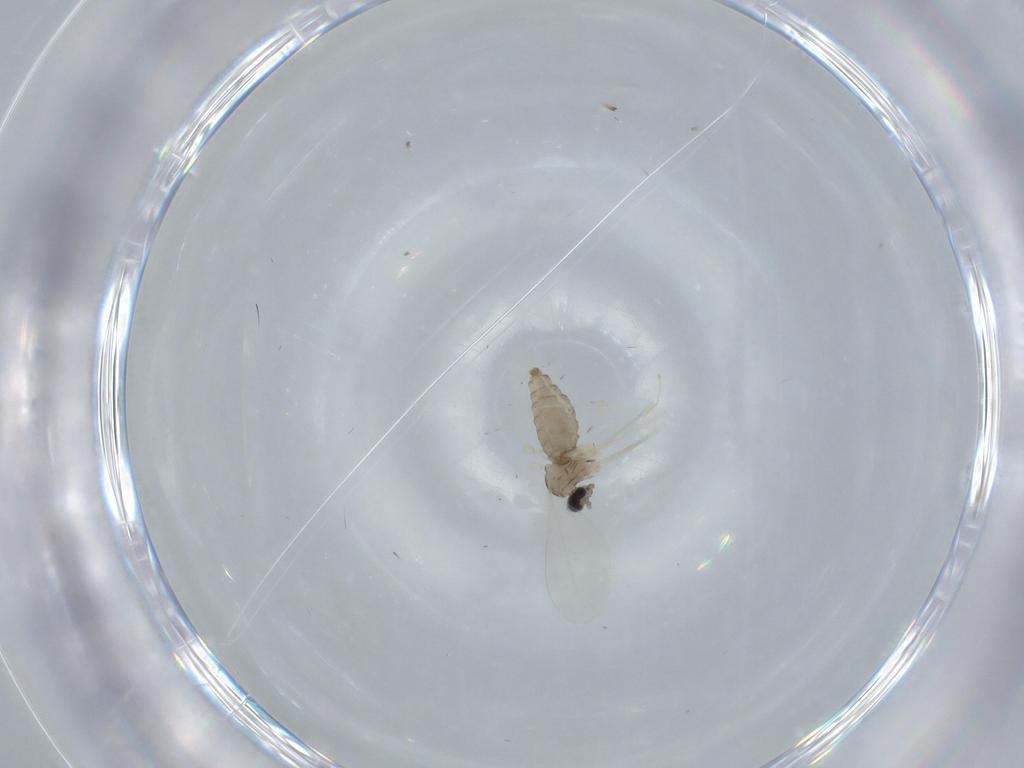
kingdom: Animalia
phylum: Arthropoda
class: Insecta
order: Diptera
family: Cecidomyiidae
